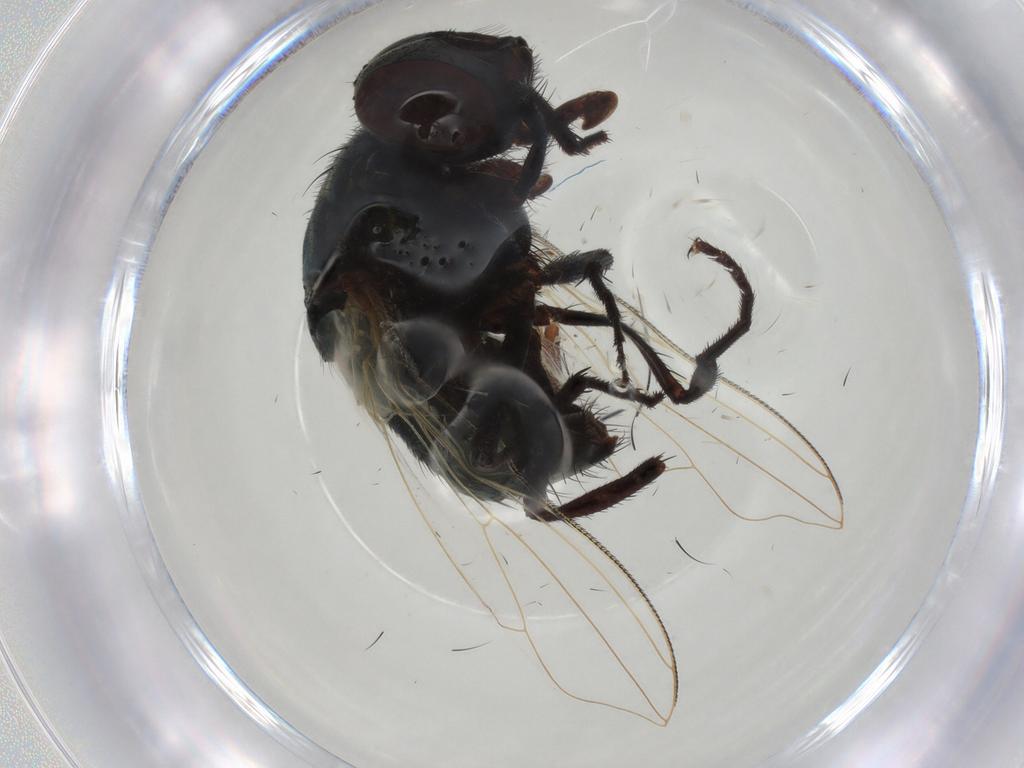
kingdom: Animalia
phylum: Arthropoda
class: Insecta
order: Diptera
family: Muscidae
